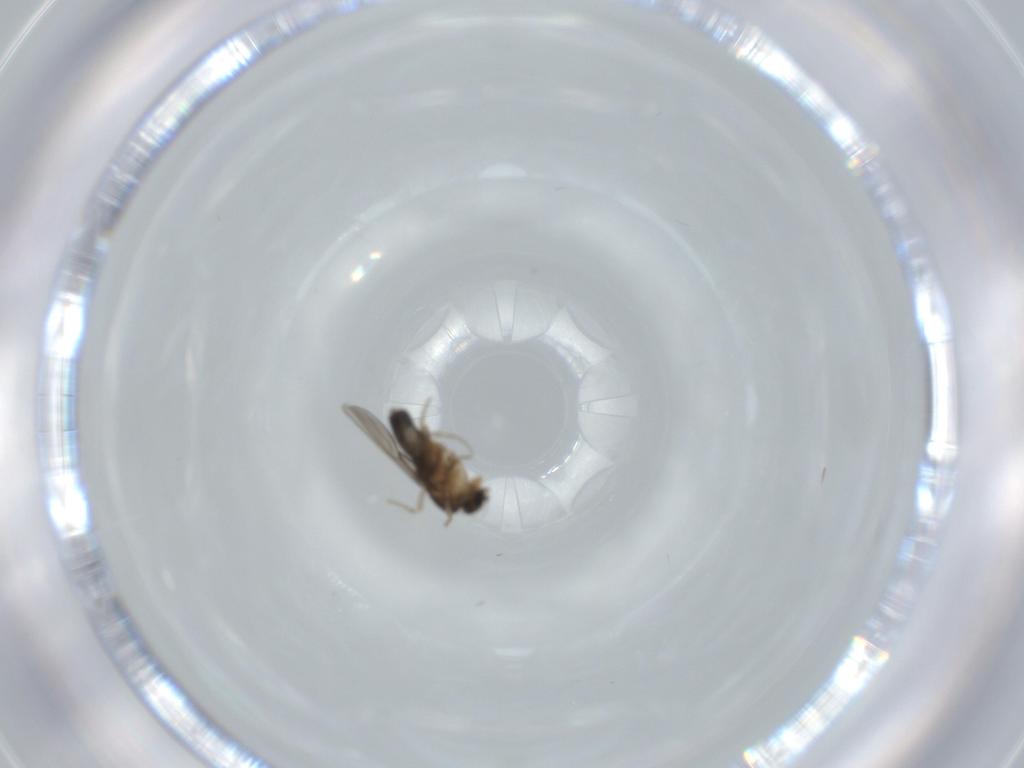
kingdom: Animalia
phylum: Arthropoda
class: Insecta
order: Diptera
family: Phoridae
